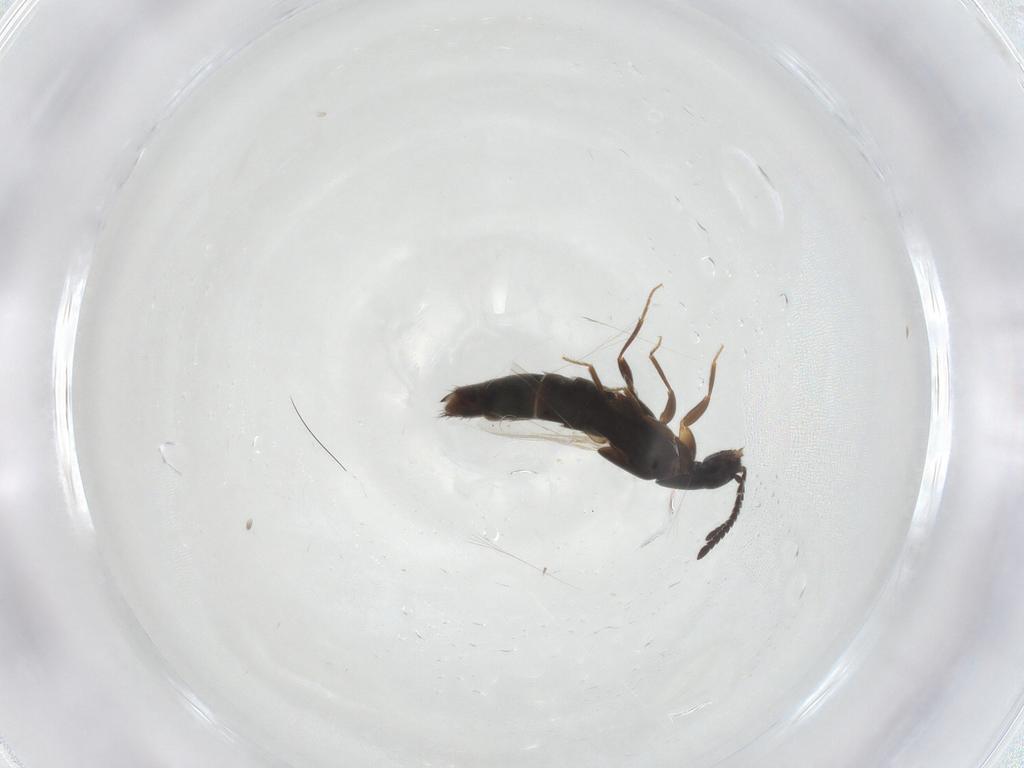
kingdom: Animalia
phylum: Arthropoda
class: Insecta
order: Coleoptera
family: Staphylinidae
